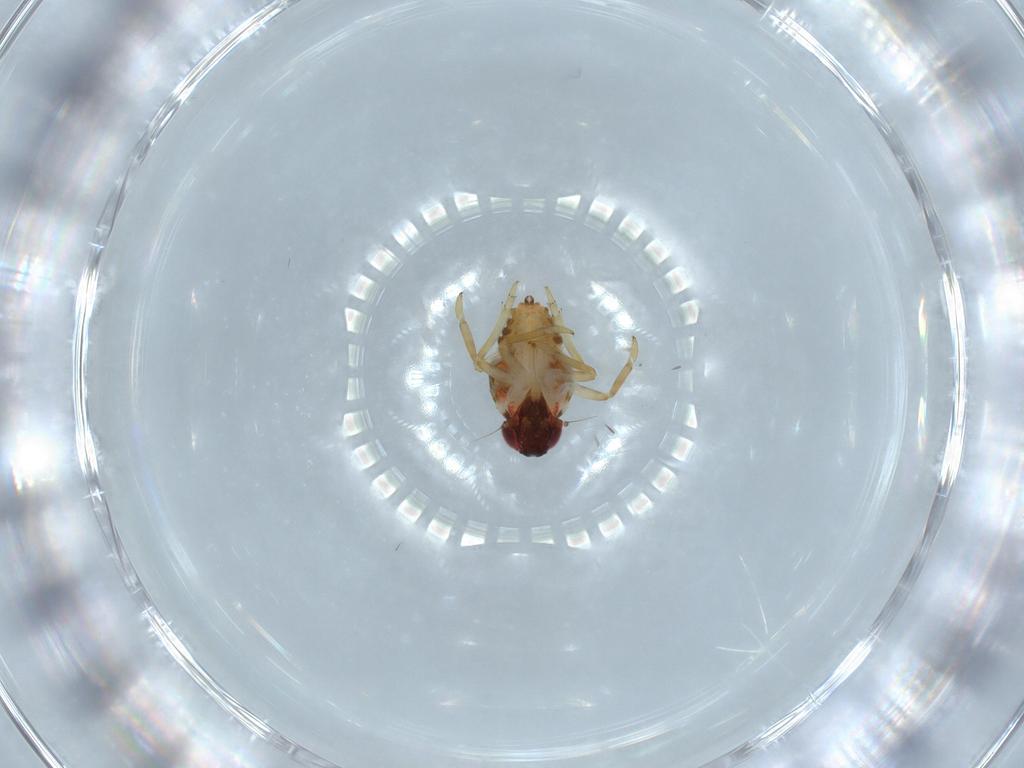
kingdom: Animalia
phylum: Arthropoda
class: Insecta
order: Hemiptera
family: Issidae
